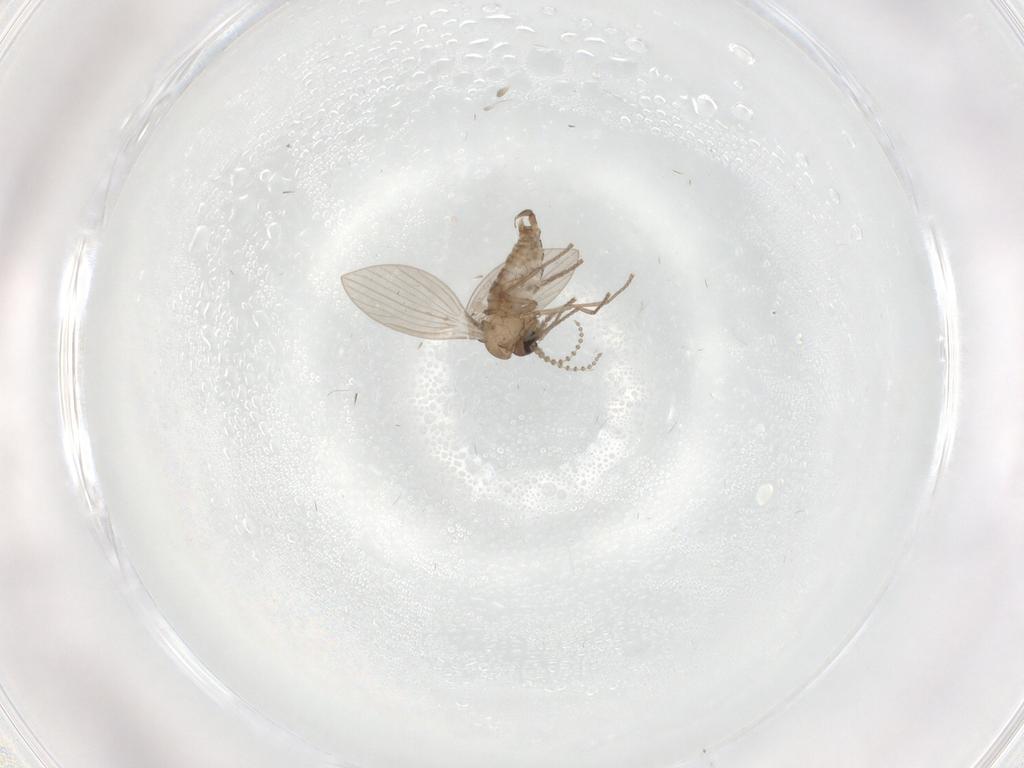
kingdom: Animalia
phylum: Arthropoda
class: Insecta
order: Diptera
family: Psychodidae
